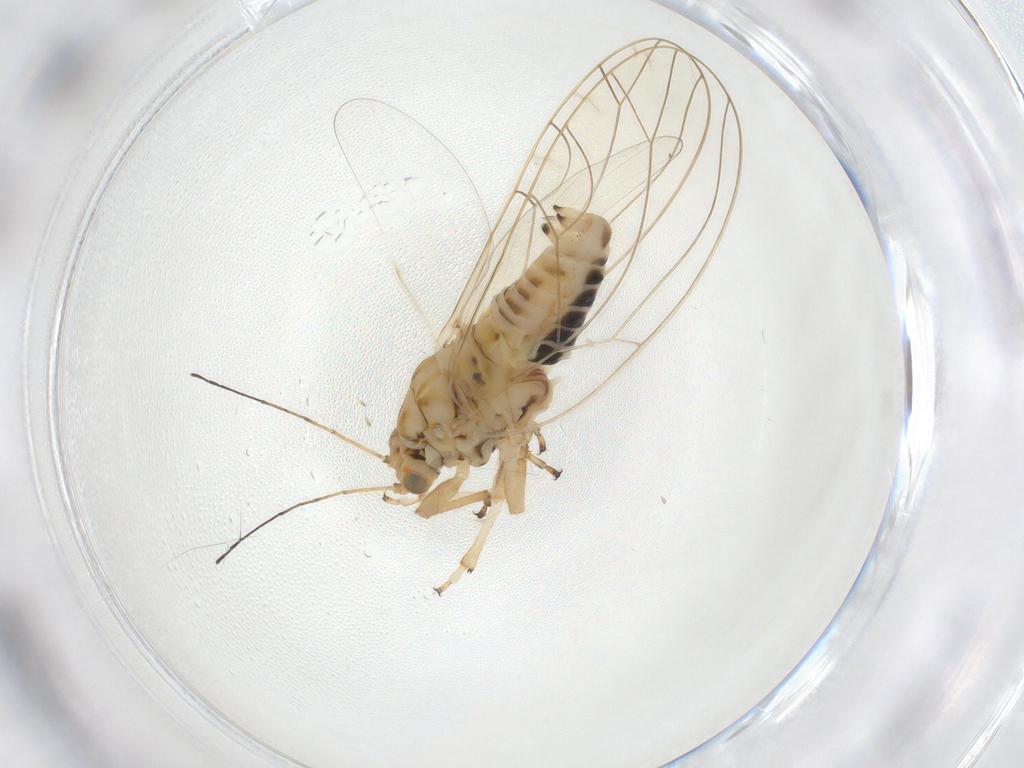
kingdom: Animalia
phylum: Arthropoda
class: Insecta
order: Hemiptera
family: Triozidae
